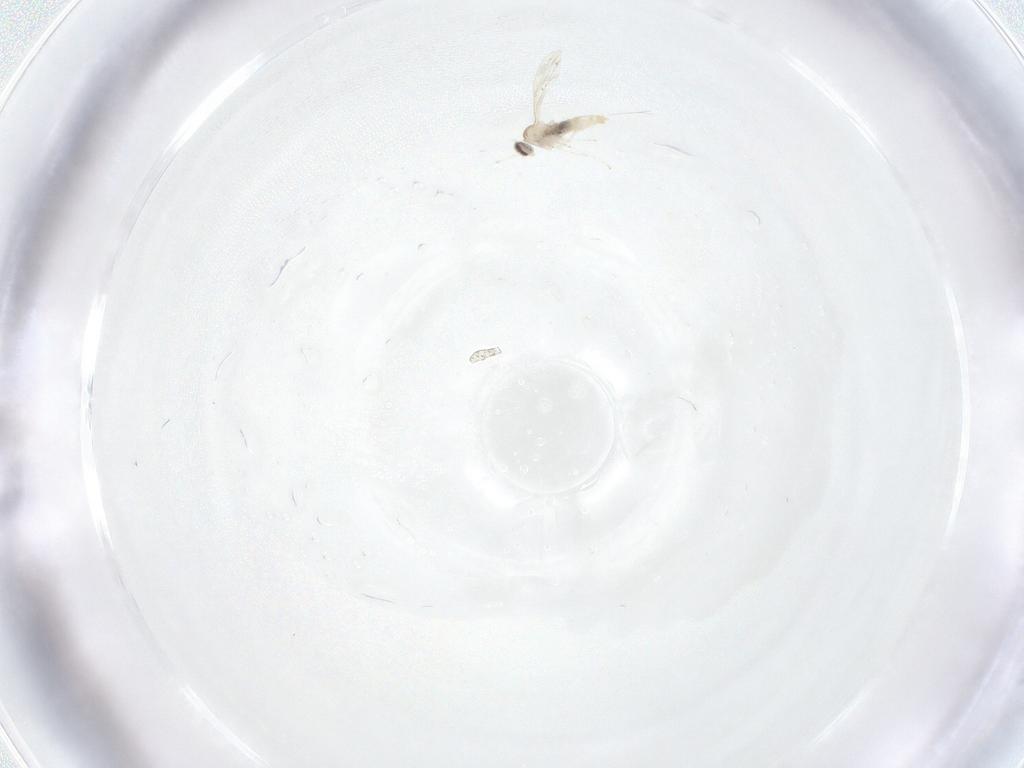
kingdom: Animalia
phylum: Arthropoda
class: Insecta
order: Diptera
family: Cecidomyiidae
